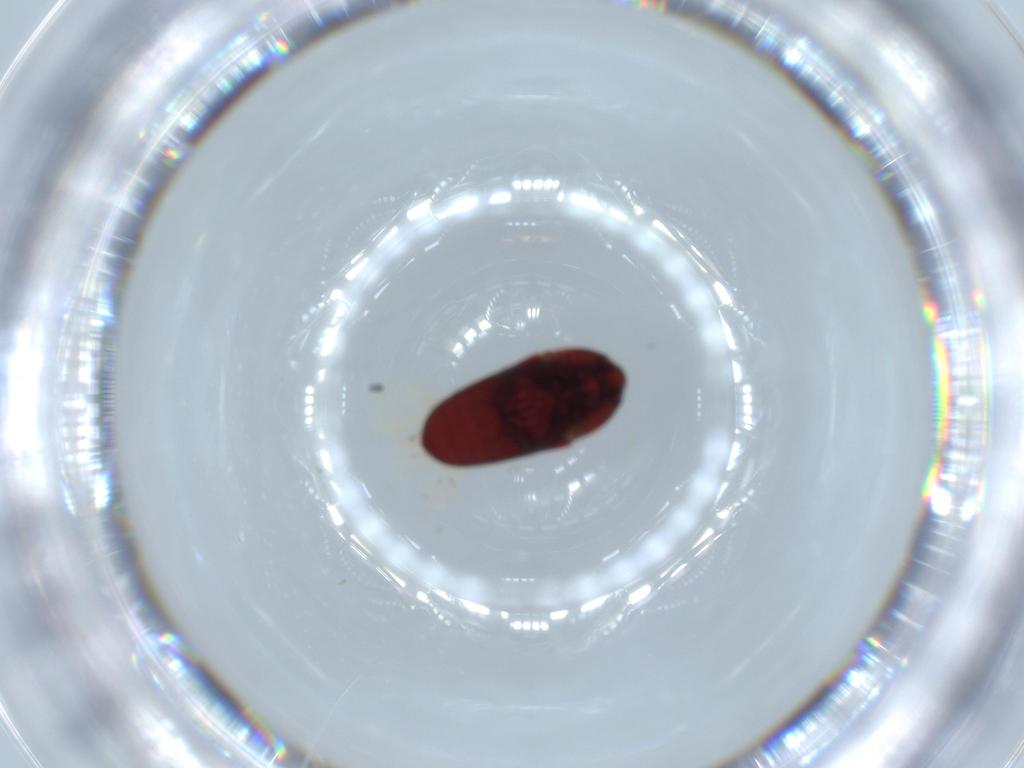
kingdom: Animalia
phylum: Arthropoda
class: Insecta
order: Coleoptera
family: Throscidae
